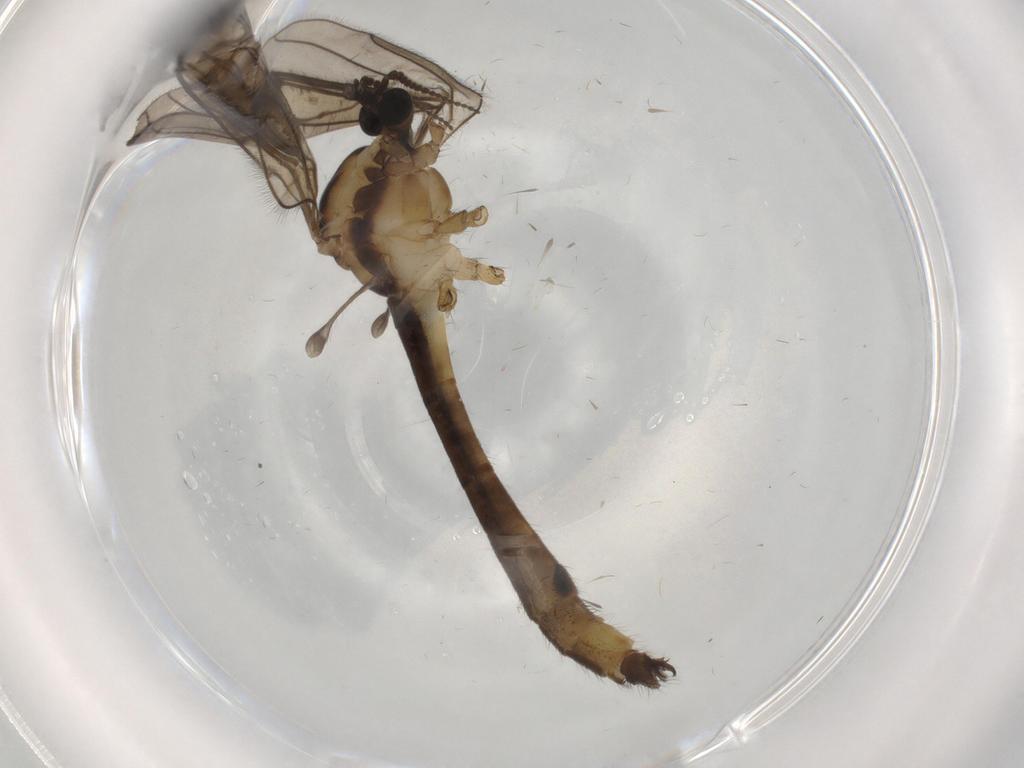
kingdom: Animalia
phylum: Arthropoda
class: Insecta
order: Diptera
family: Limoniidae
